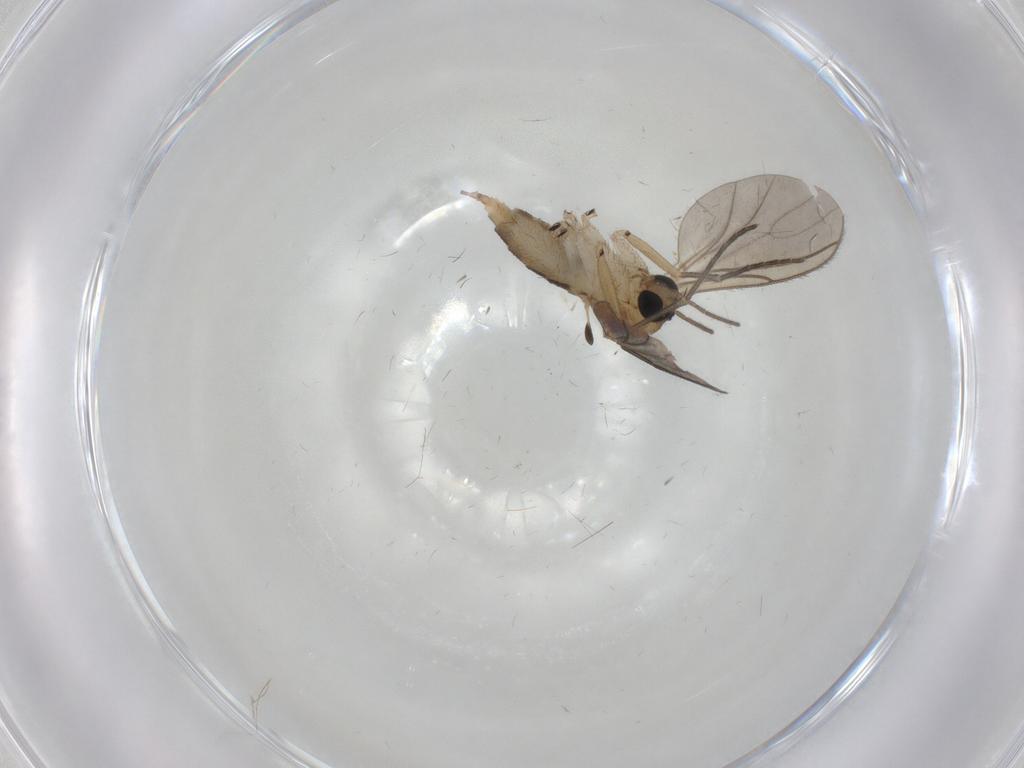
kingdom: Animalia
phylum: Arthropoda
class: Insecta
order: Diptera
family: Sciaridae
